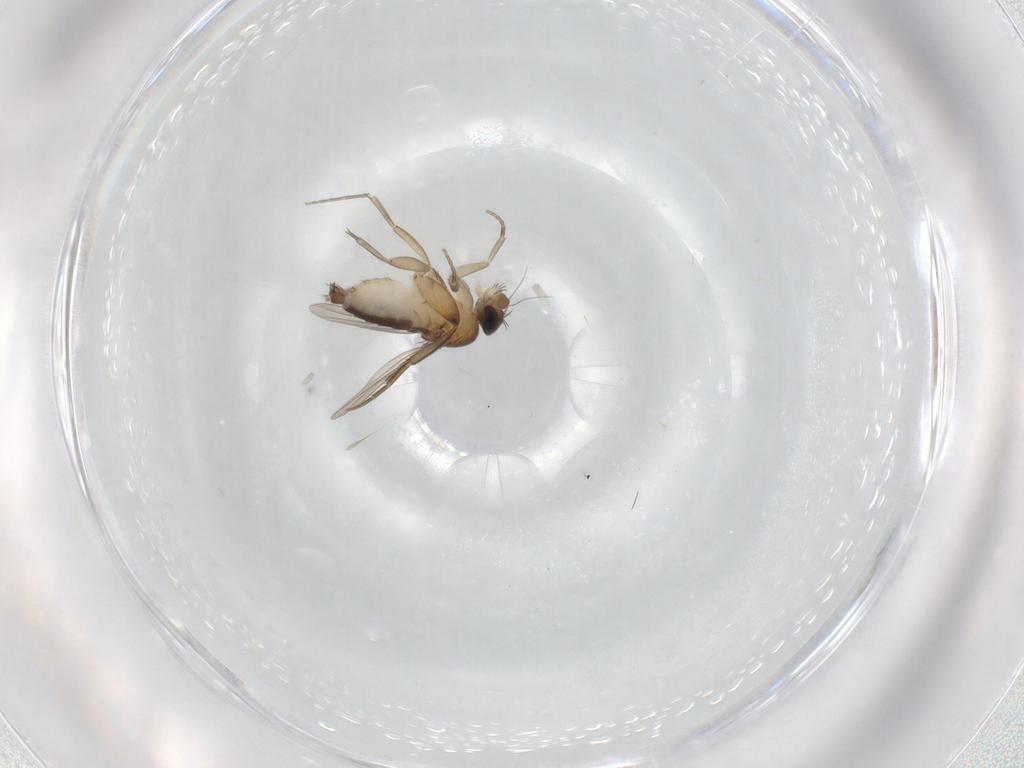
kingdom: Animalia
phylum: Arthropoda
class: Insecta
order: Diptera
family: Phoridae
